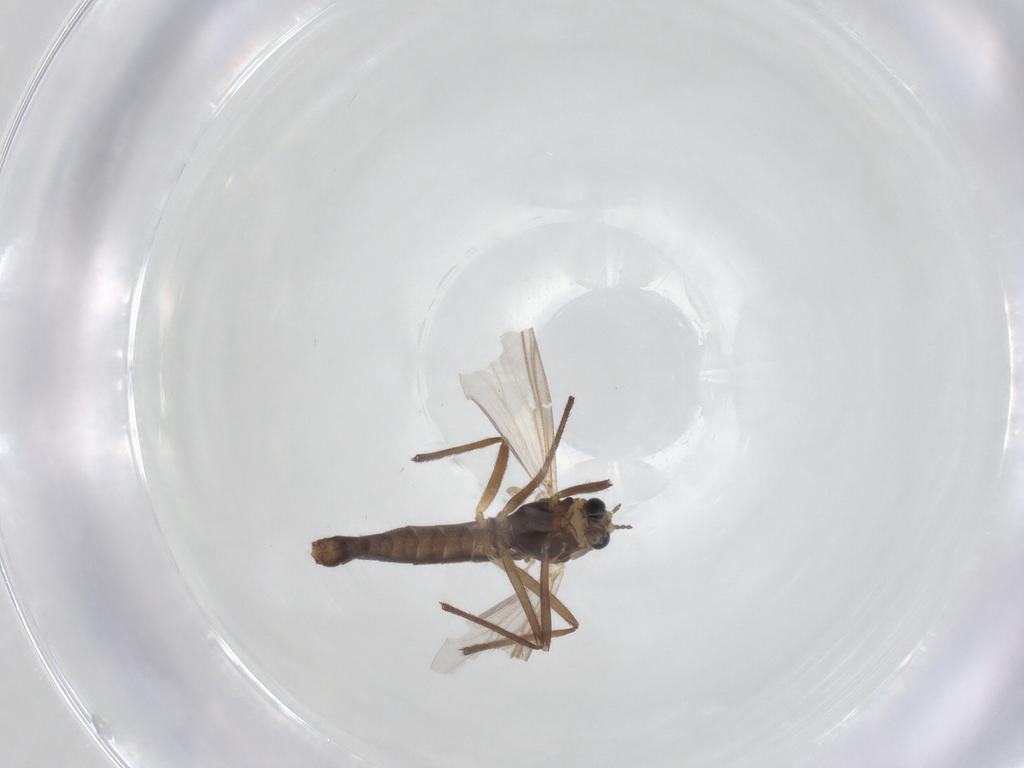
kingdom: Animalia
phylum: Arthropoda
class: Insecta
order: Diptera
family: Chironomidae
